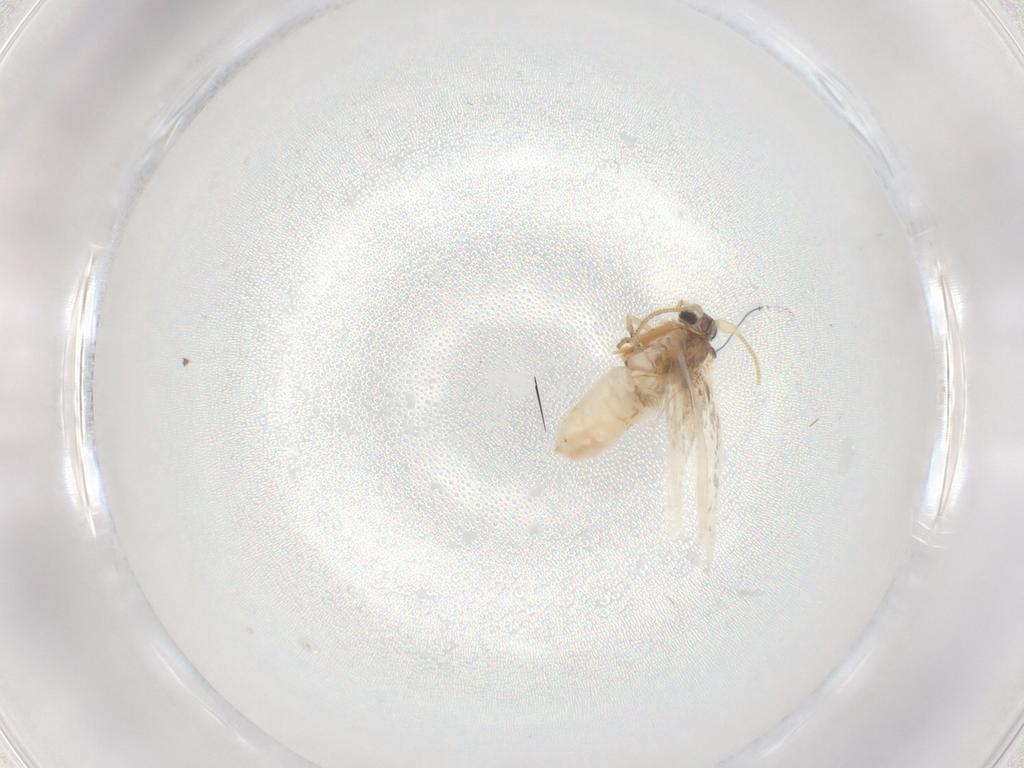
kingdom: Animalia
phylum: Arthropoda
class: Insecta
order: Lepidoptera
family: Nepticulidae
